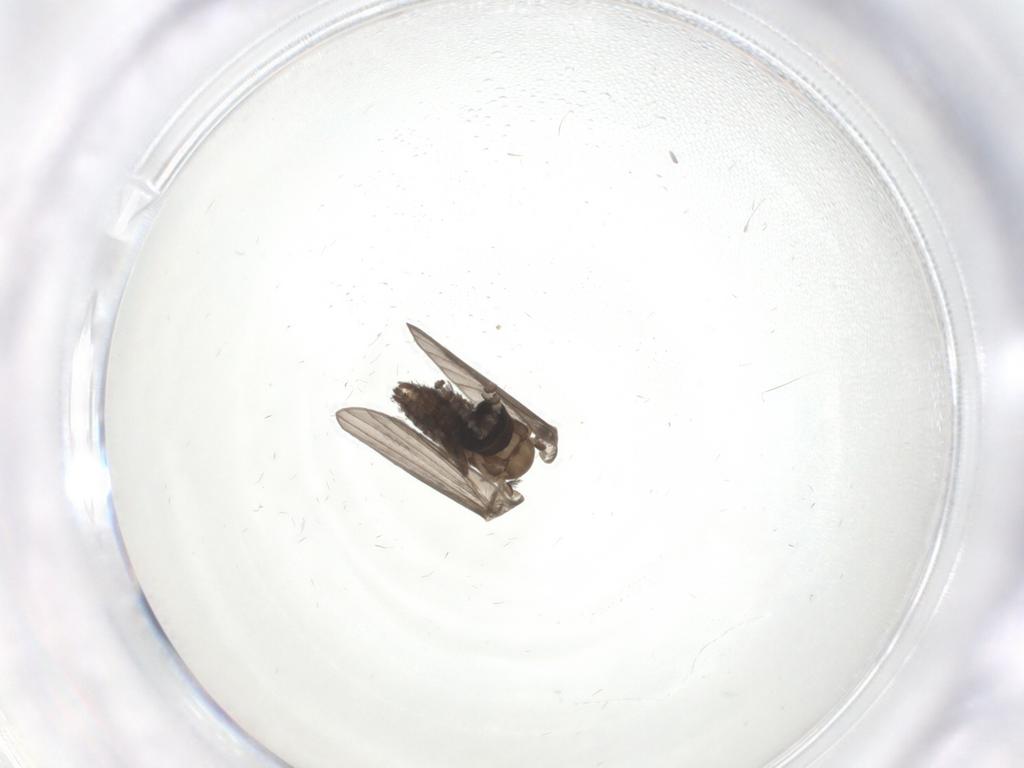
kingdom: Animalia
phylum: Arthropoda
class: Insecta
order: Diptera
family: Psychodidae
